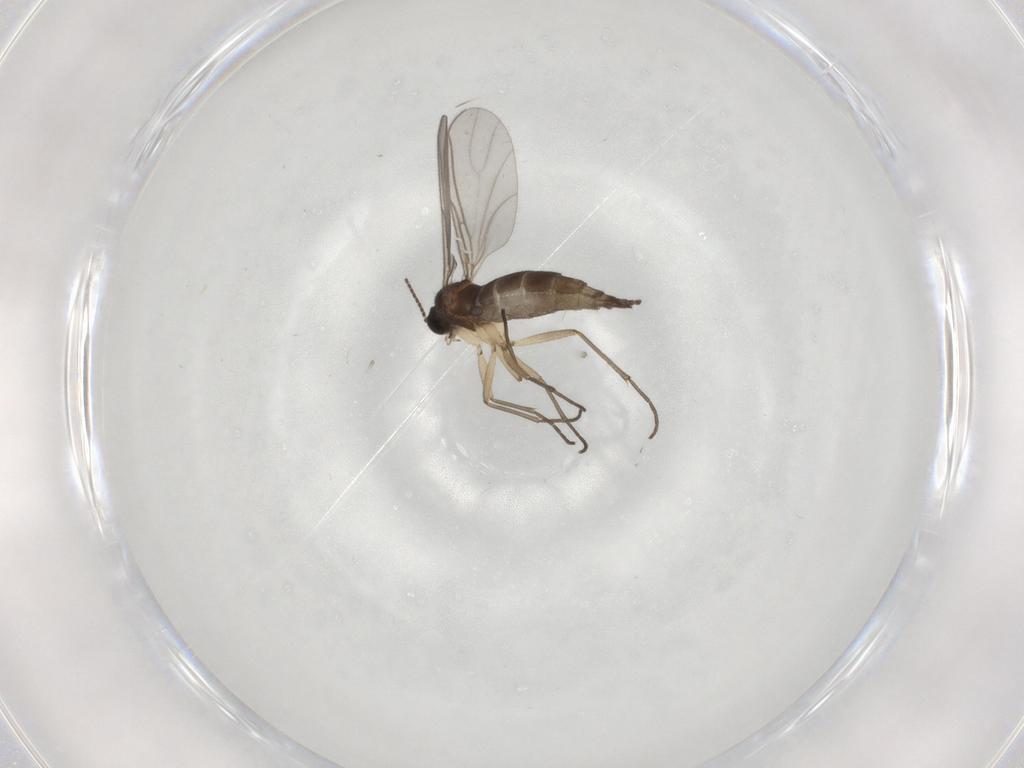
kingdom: Animalia
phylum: Arthropoda
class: Insecta
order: Diptera
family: Sciaridae
